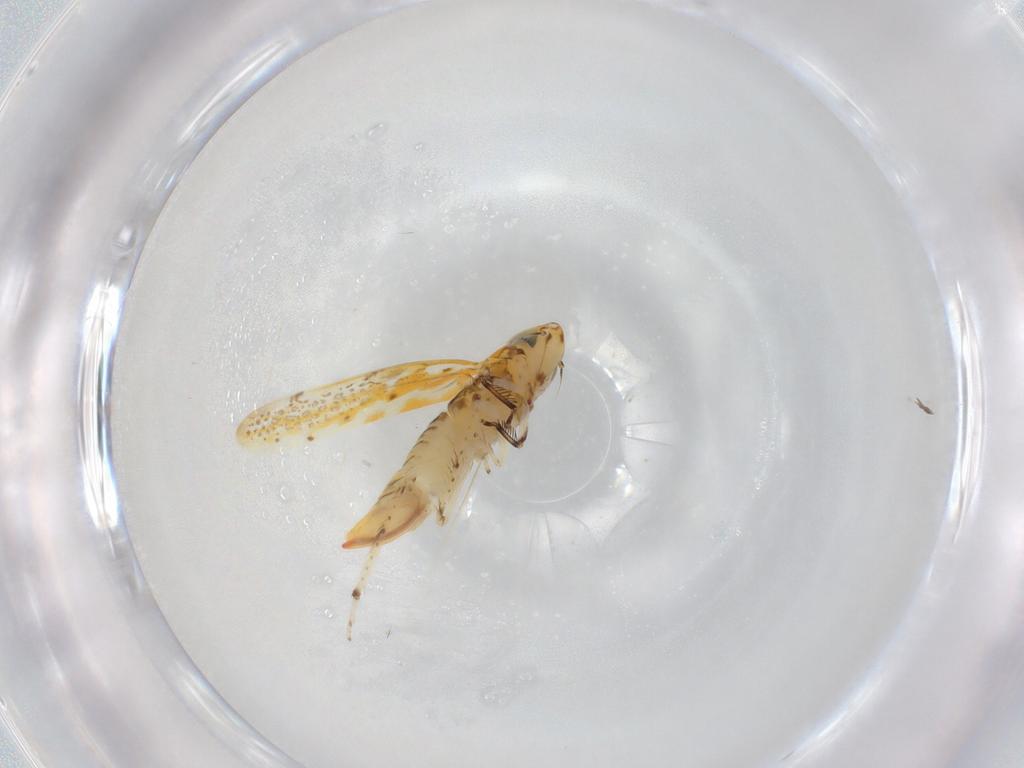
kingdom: Animalia
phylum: Arthropoda
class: Insecta
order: Hemiptera
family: Cicadellidae
